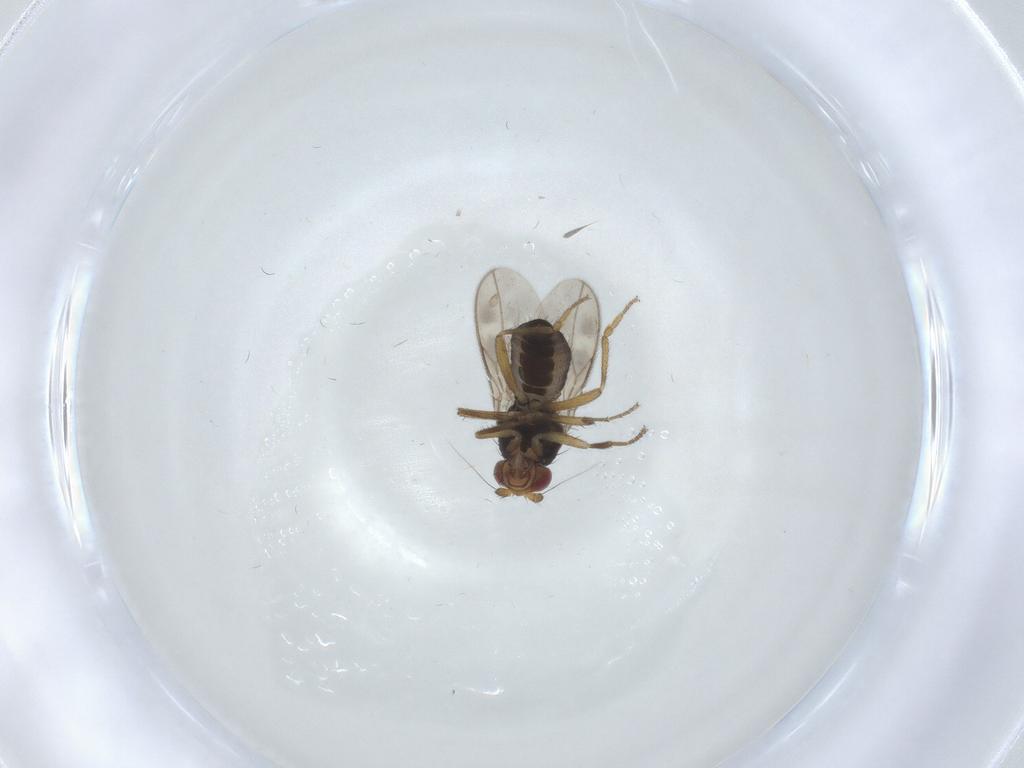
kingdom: Animalia
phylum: Arthropoda
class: Insecta
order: Diptera
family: Sphaeroceridae
